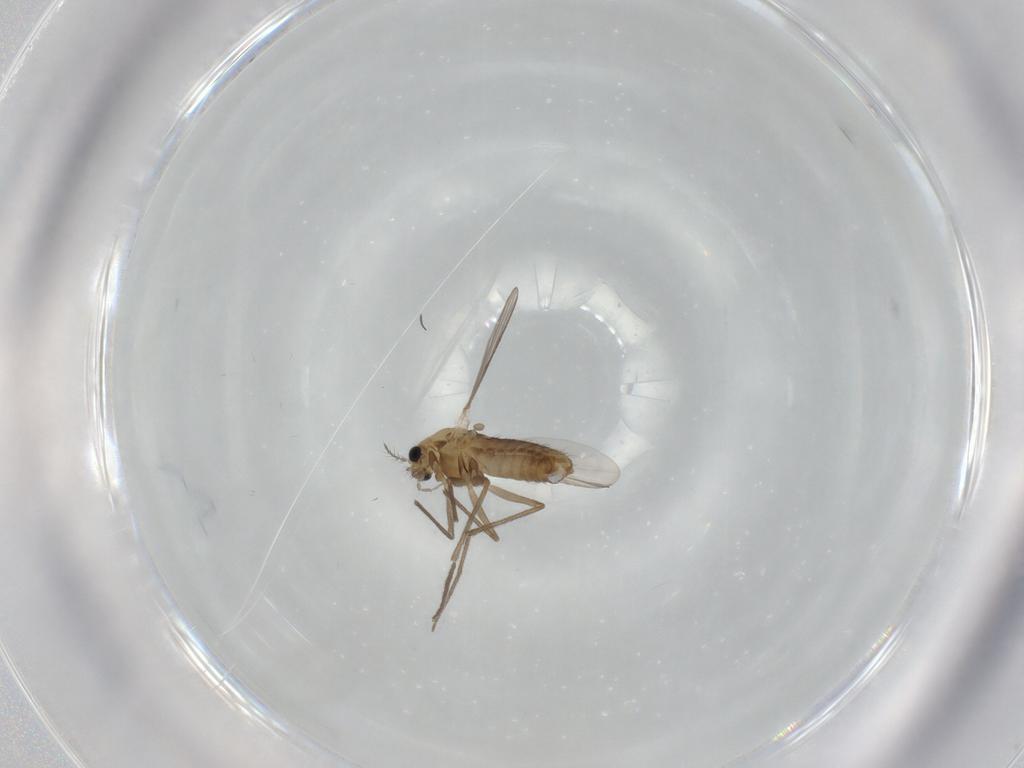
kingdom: Animalia
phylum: Arthropoda
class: Insecta
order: Diptera
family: Chironomidae
